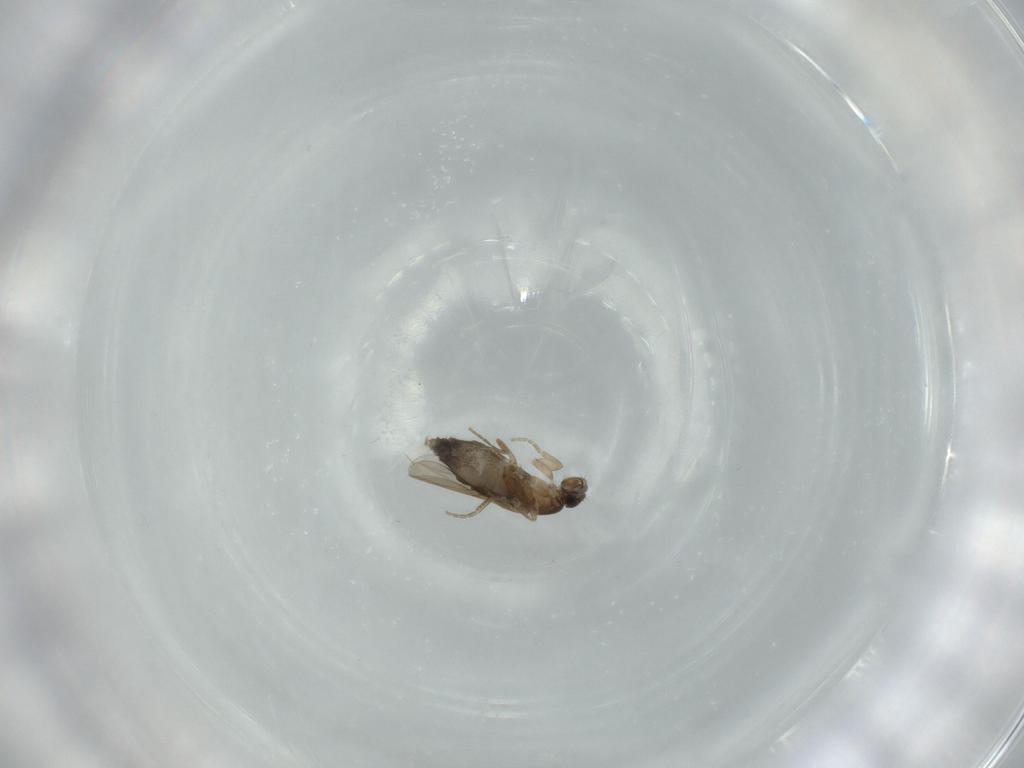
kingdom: Animalia
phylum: Arthropoda
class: Insecta
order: Diptera
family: Phoridae
